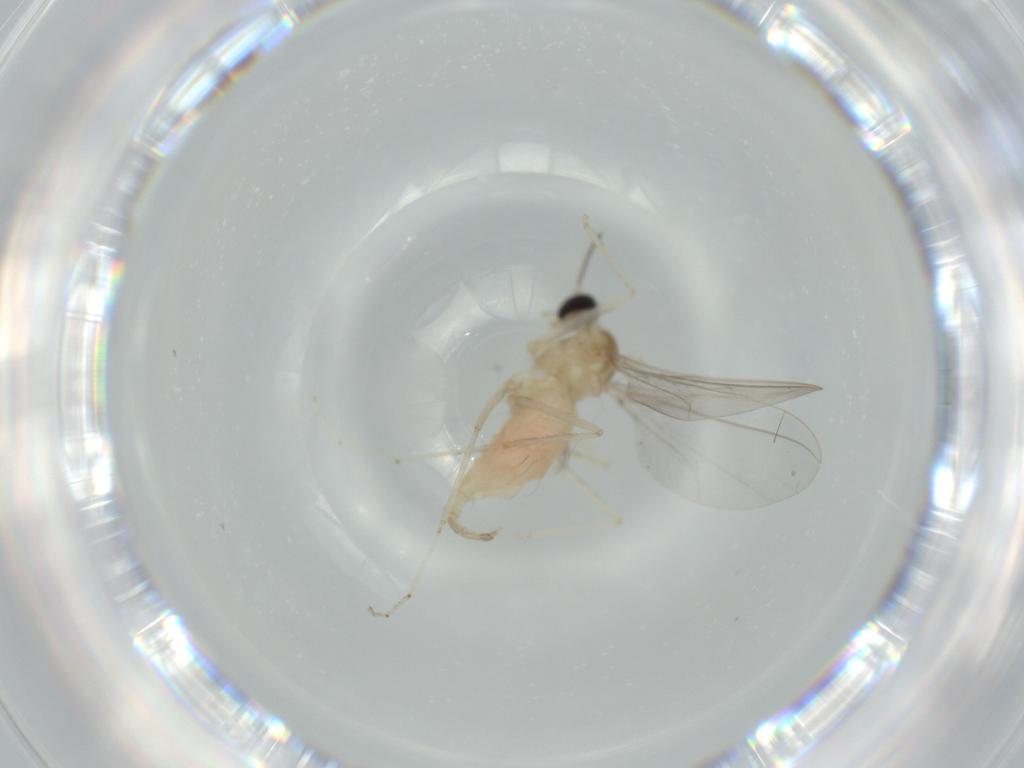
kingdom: Animalia
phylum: Arthropoda
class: Insecta
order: Diptera
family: Cecidomyiidae
